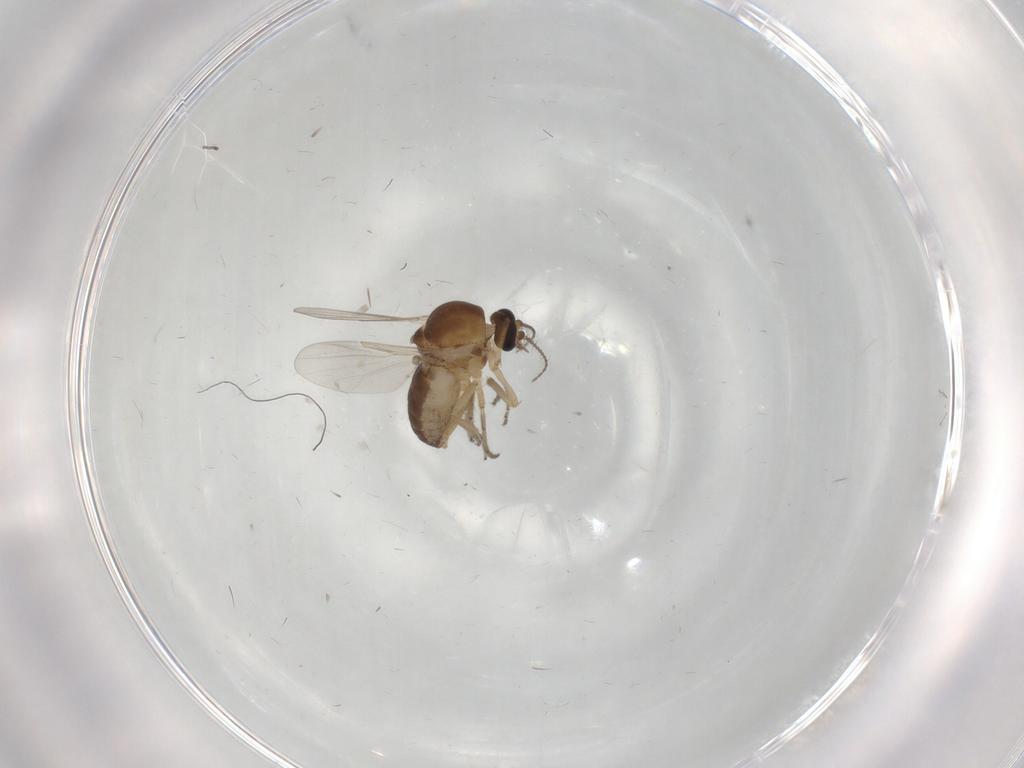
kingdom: Animalia
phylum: Arthropoda
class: Insecta
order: Diptera
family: Ceratopogonidae
